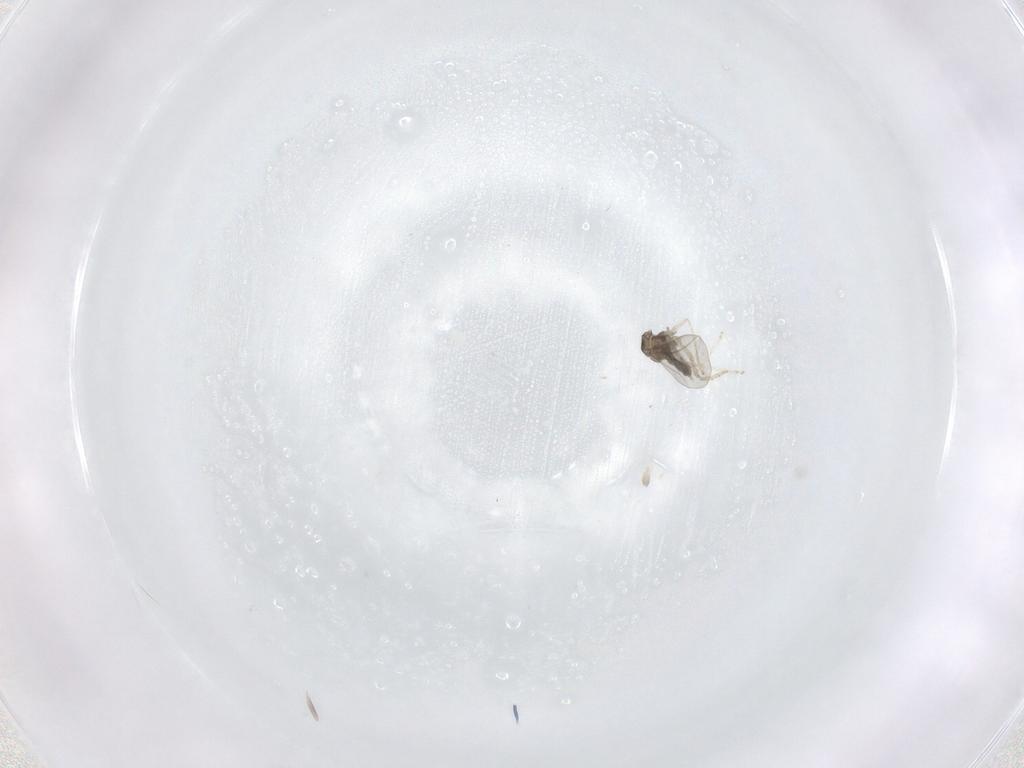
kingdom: Animalia
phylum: Arthropoda
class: Insecta
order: Diptera
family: Cecidomyiidae
